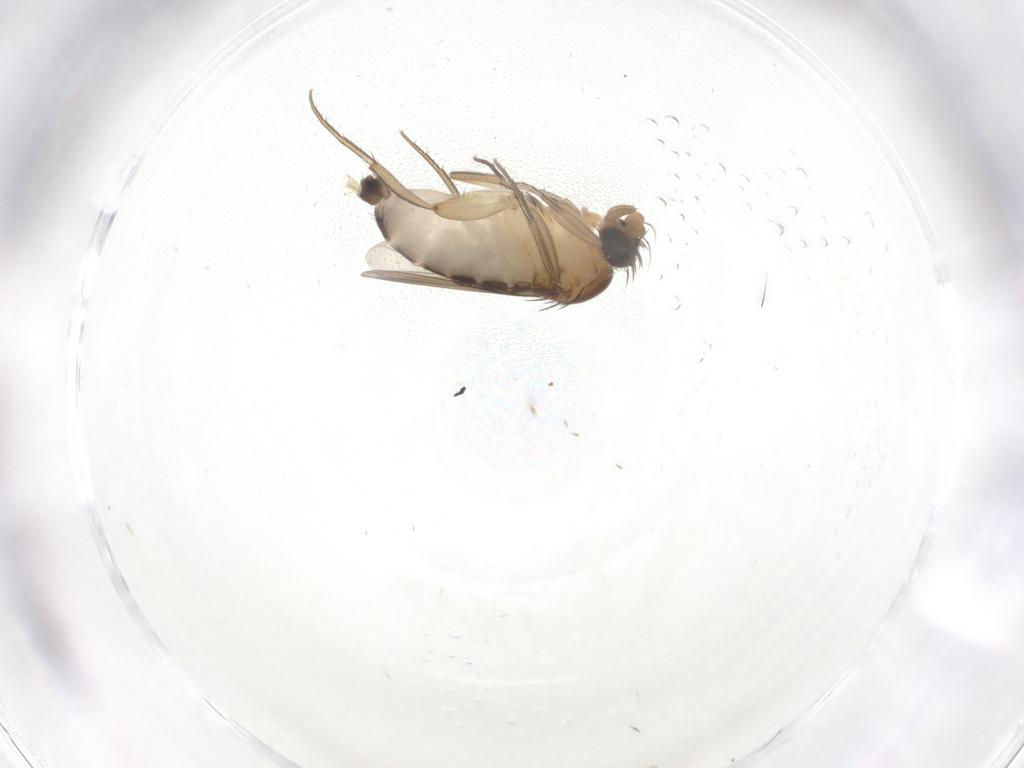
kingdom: Animalia
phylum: Arthropoda
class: Insecta
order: Diptera
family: Phoridae
